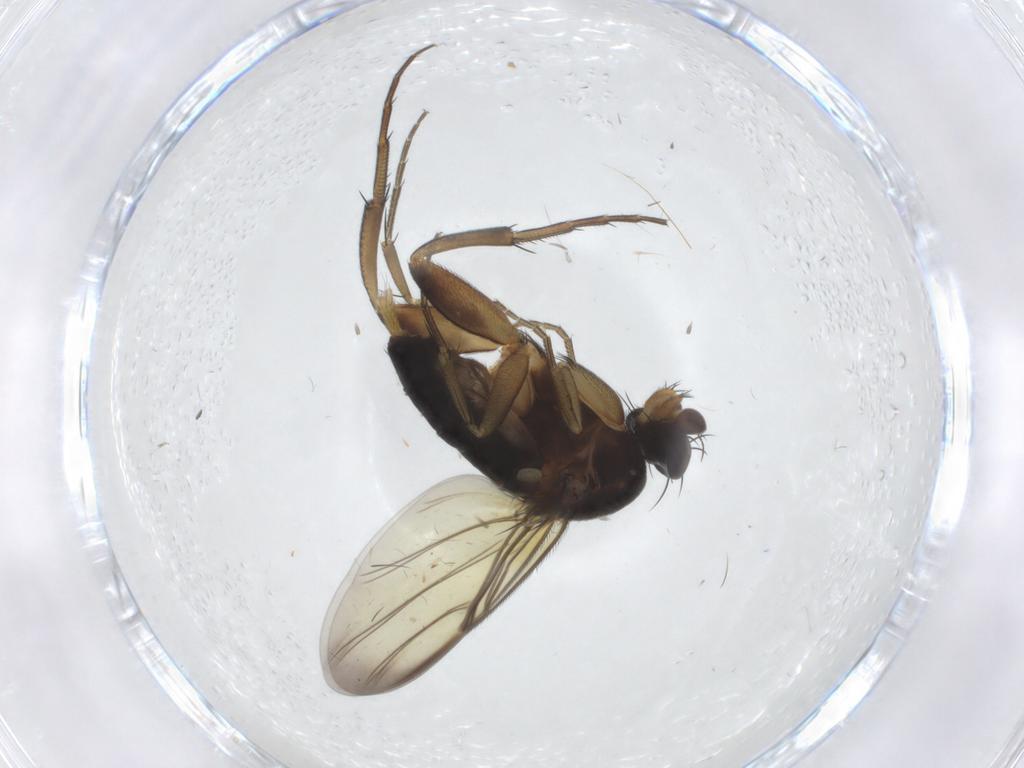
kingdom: Animalia
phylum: Arthropoda
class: Insecta
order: Diptera
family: Phoridae
